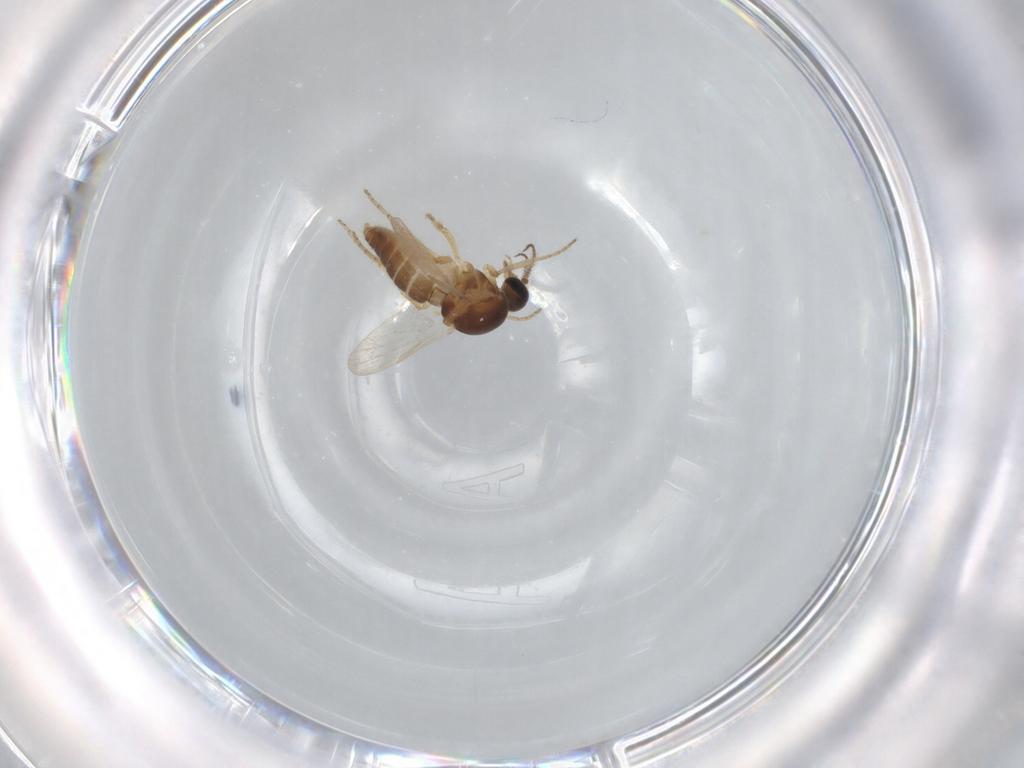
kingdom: Animalia
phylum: Arthropoda
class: Insecta
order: Diptera
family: Ceratopogonidae
